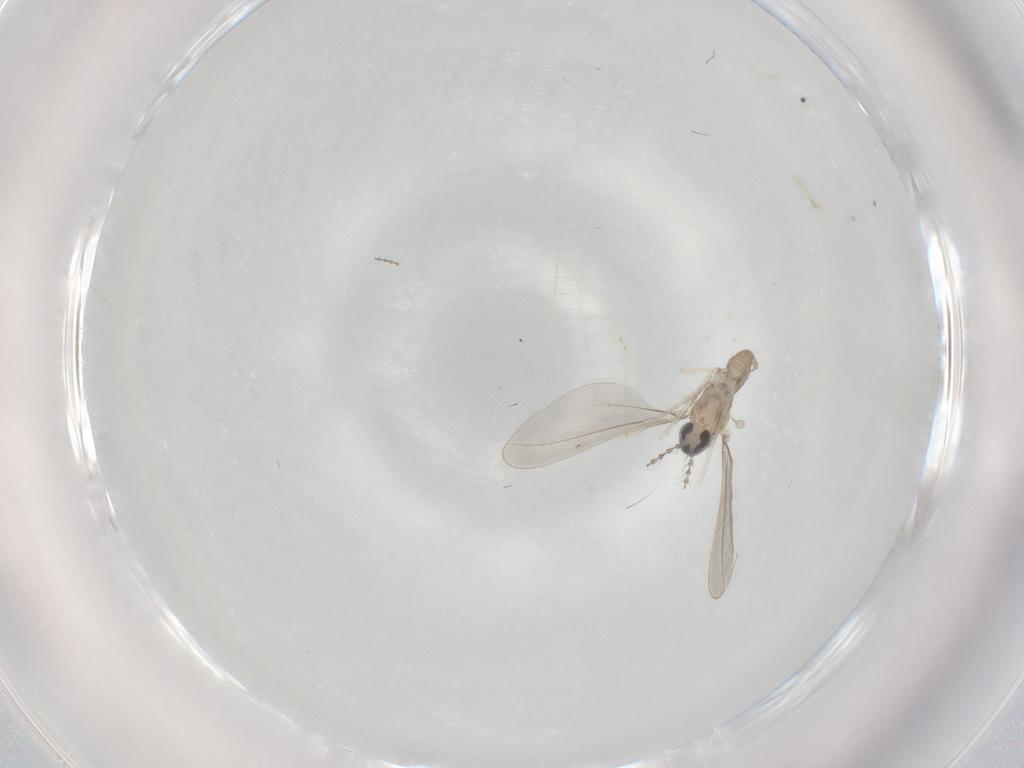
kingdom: Animalia
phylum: Arthropoda
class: Insecta
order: Diptera
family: Cecidomyiidae
